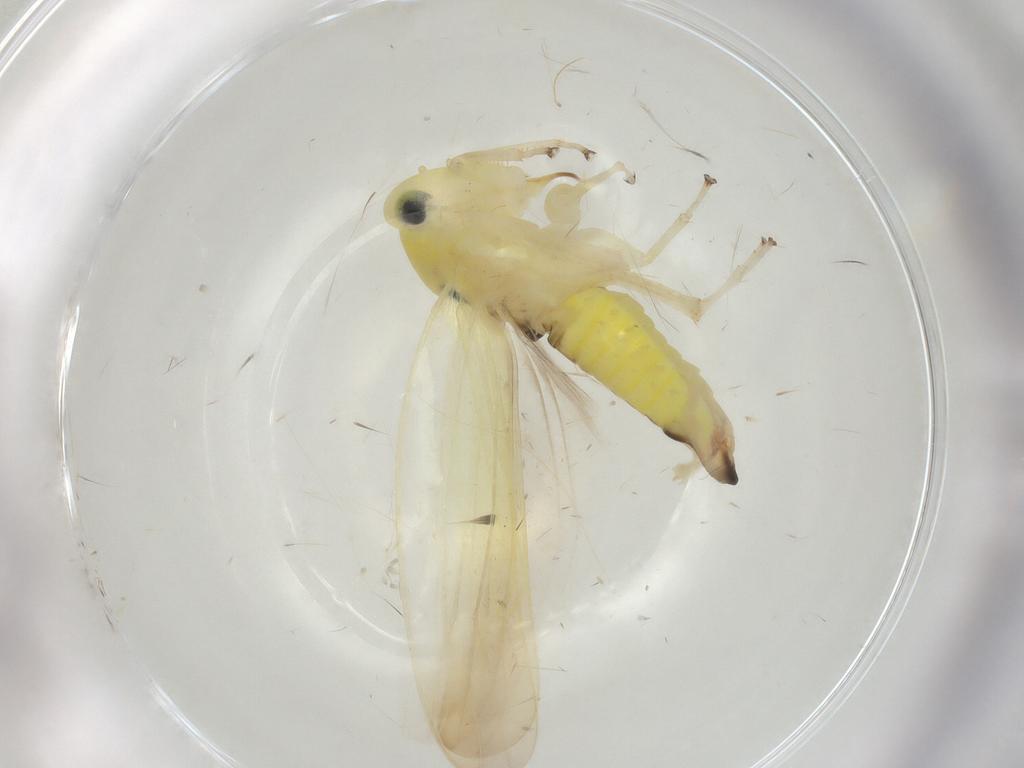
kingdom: Animalia
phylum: Arthropoda
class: Insecta
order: Hemiptera
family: Cicadellidae
